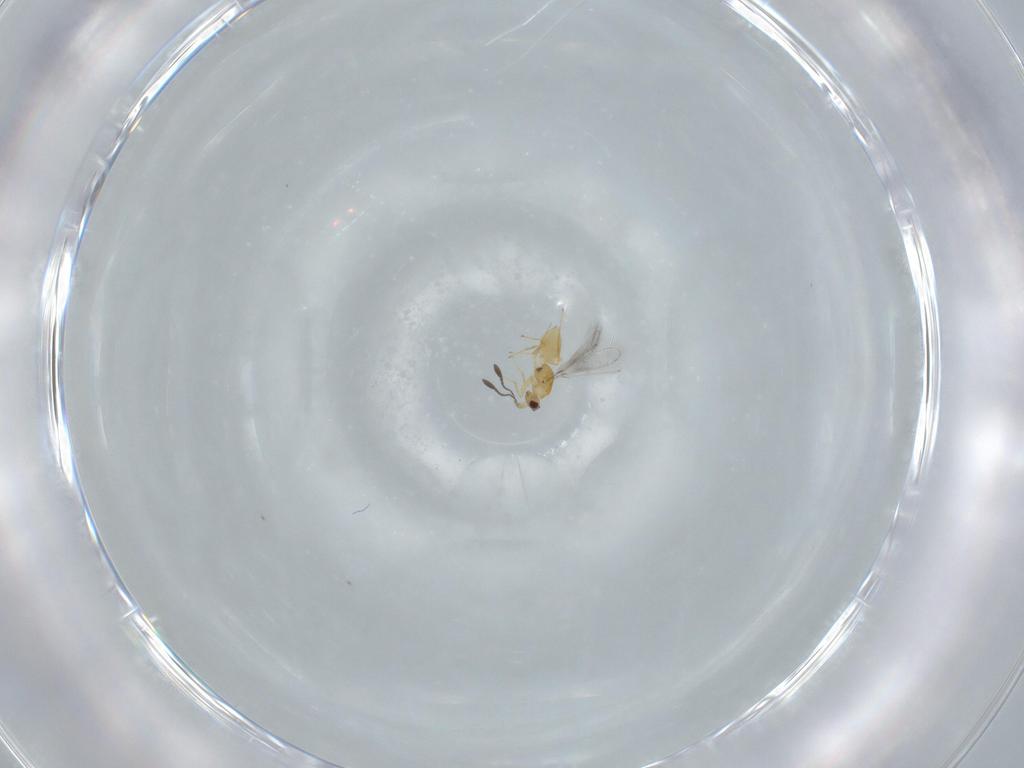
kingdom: Animalia
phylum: Arthropoda
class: Insecta
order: Hymenoptera
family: Mymaridae
